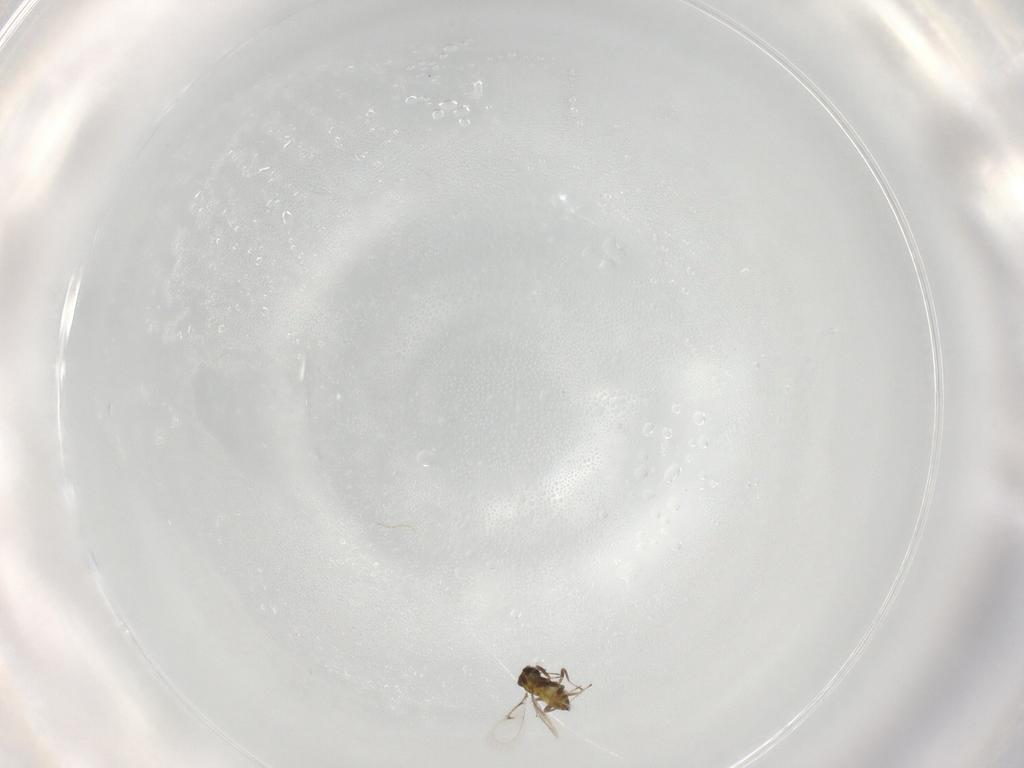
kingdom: Animalia
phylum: Arthropoda
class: Insecta
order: Hymenoptera
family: Trichogrammatidae
